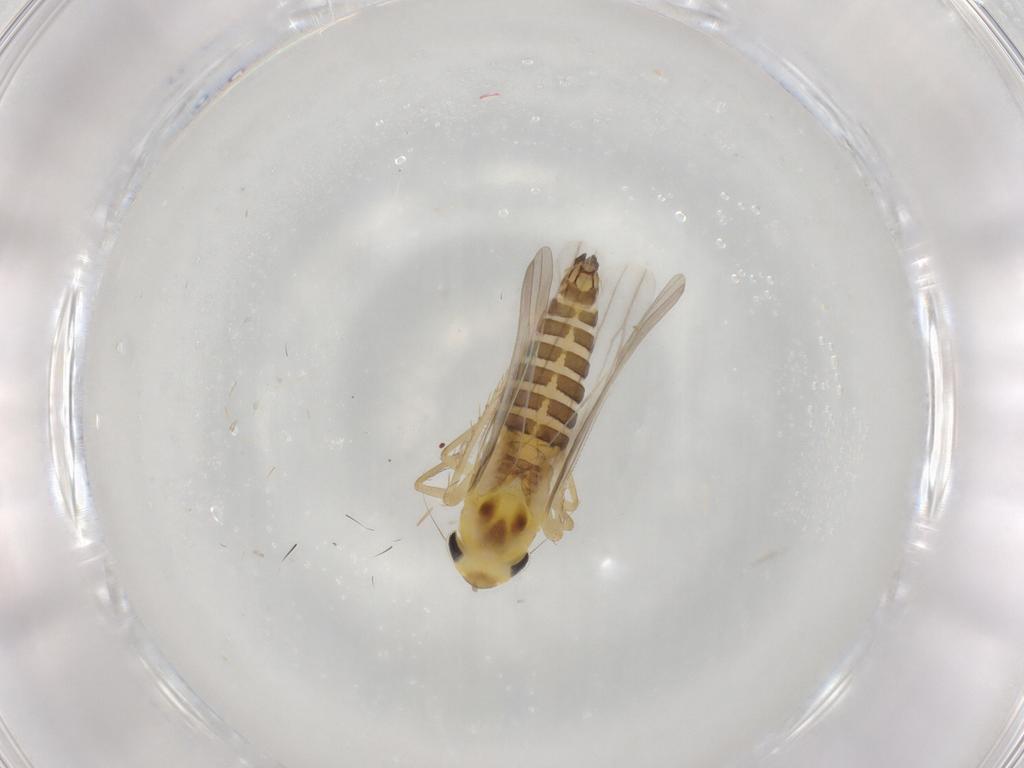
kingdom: Animalia
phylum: Arthropoda
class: Insecta
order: Hemiptera
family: Cicadellidae
